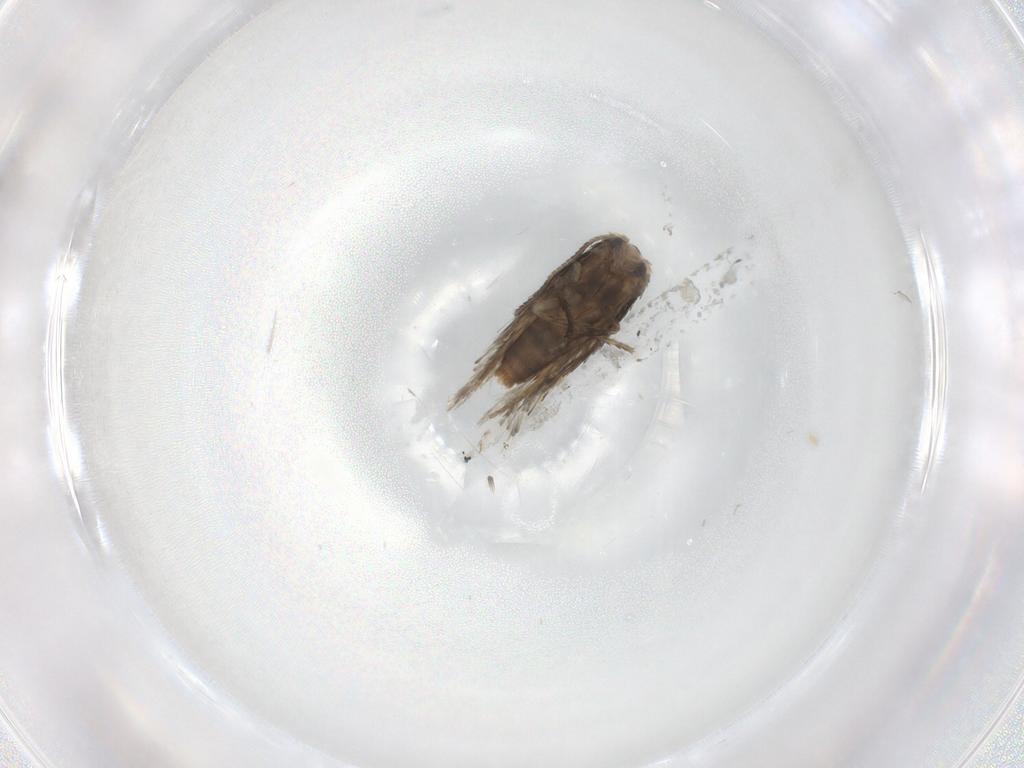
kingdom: Animalia
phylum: Arthropoda
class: Insecta
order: Lepidoptera
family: Nepticulidae
